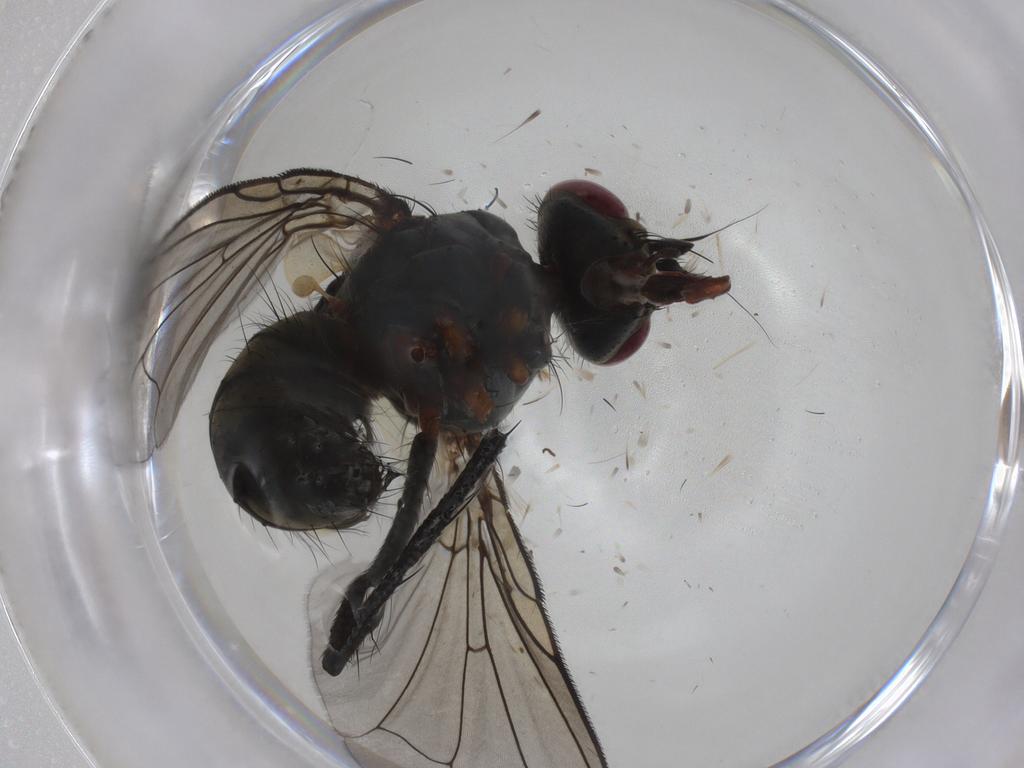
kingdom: Animalia
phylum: Arthropoda
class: Insecta
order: Diptera
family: Tachinidae
